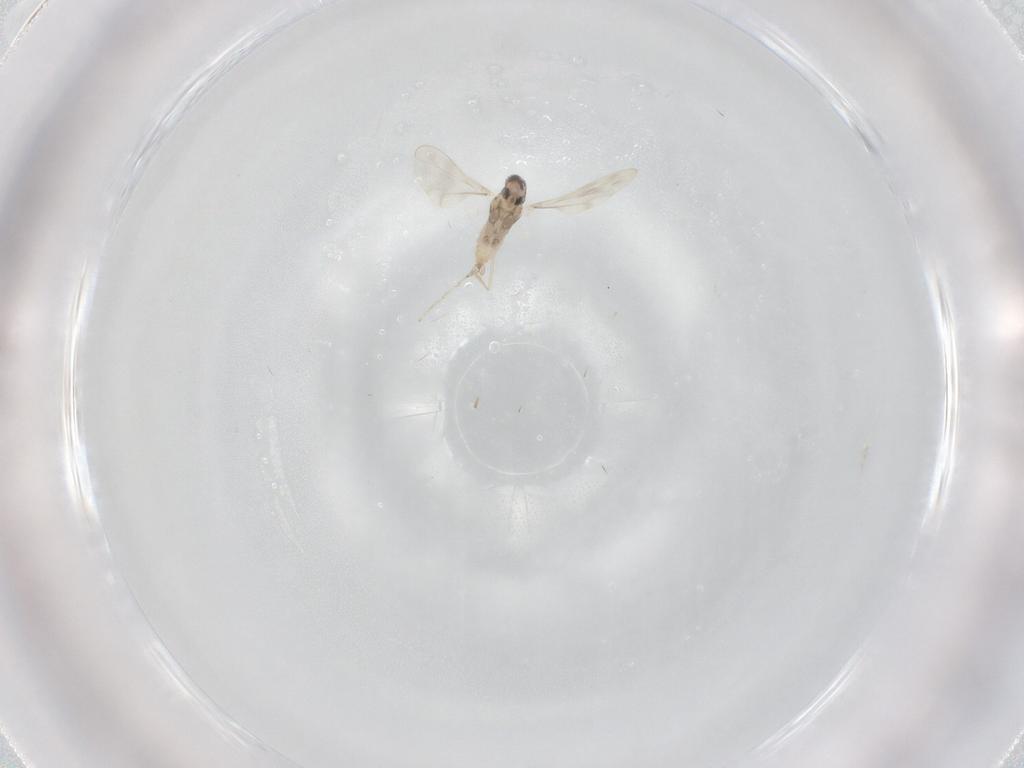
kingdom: Animalia
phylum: Arthropoda
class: Insecta
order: Diptera
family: Cecidomyiidae
